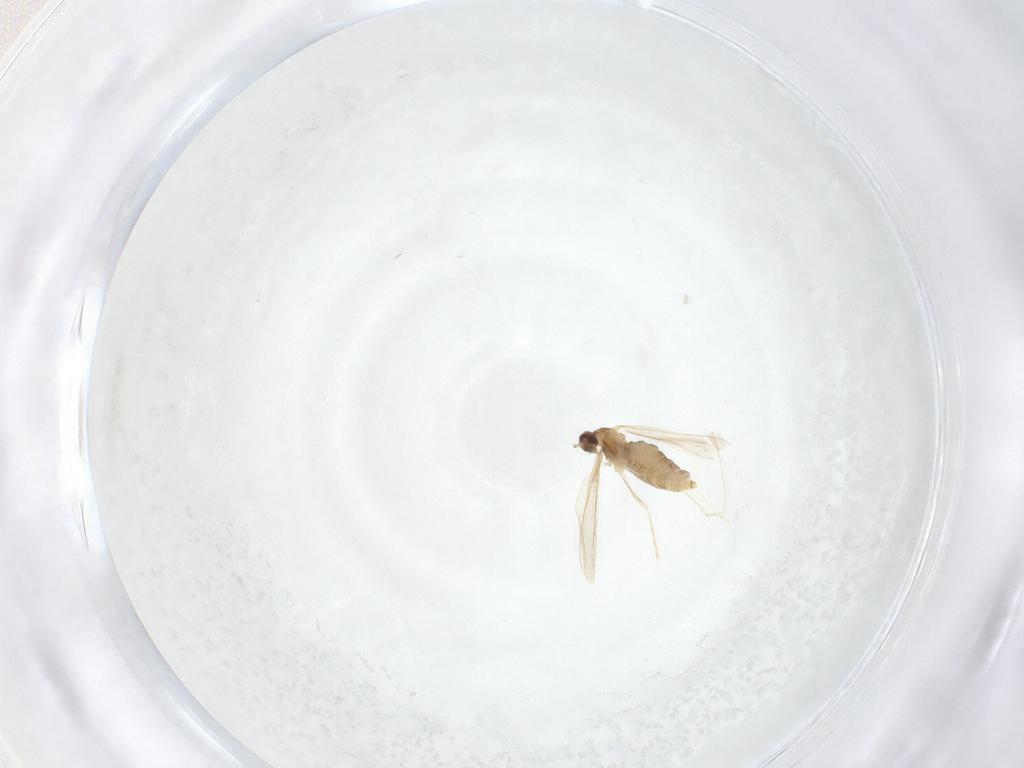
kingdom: Animalia
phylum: Arthropoda
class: Insecta
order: Diptera
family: Cecidomyiidae
